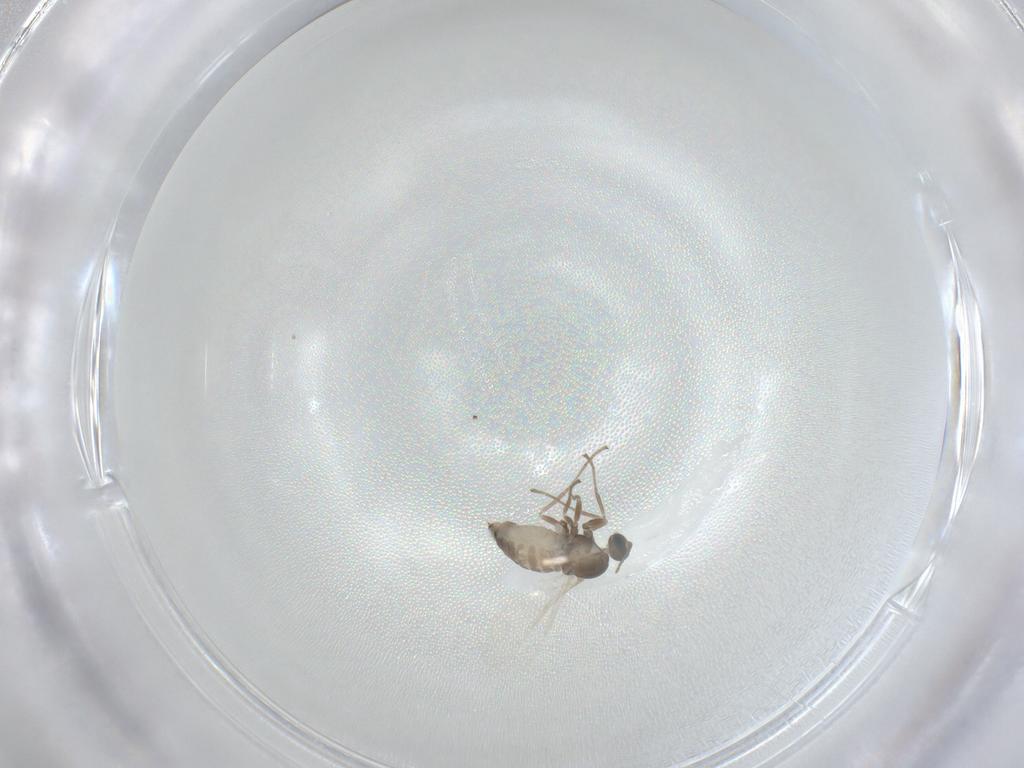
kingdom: Animalia
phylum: Arthropoda
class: Insecta
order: Diptera
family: Cecidomyiidae
